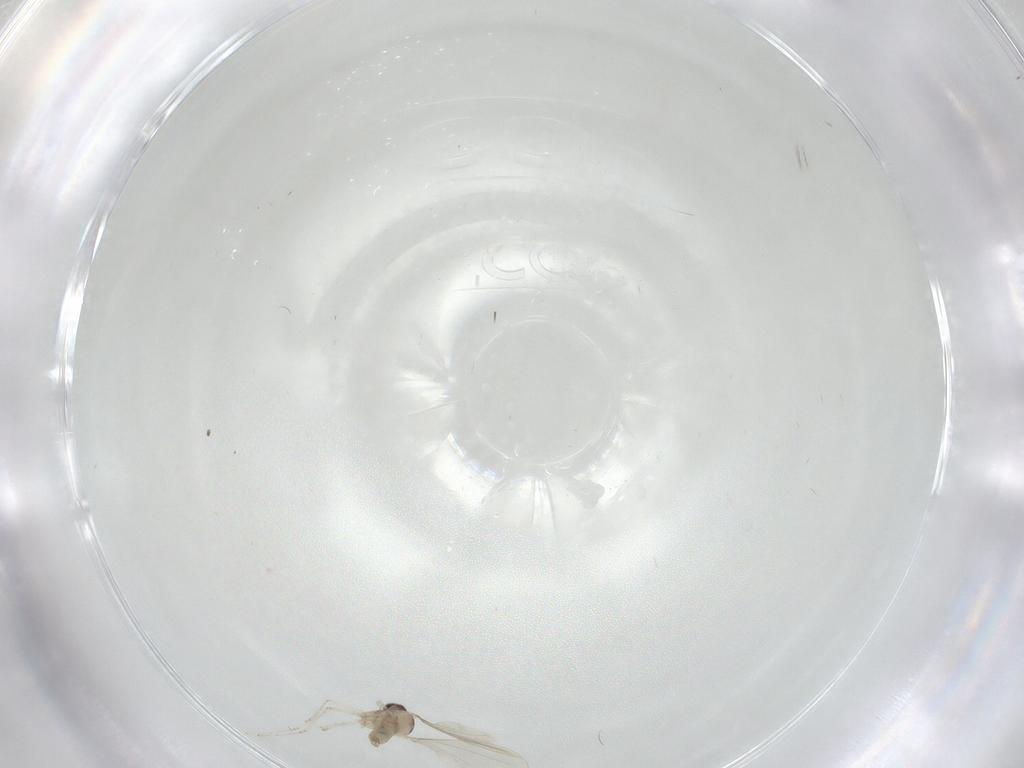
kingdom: Animalia
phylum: Arthropoda
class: Insecta
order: Diptera
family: Cecidomyiidae
